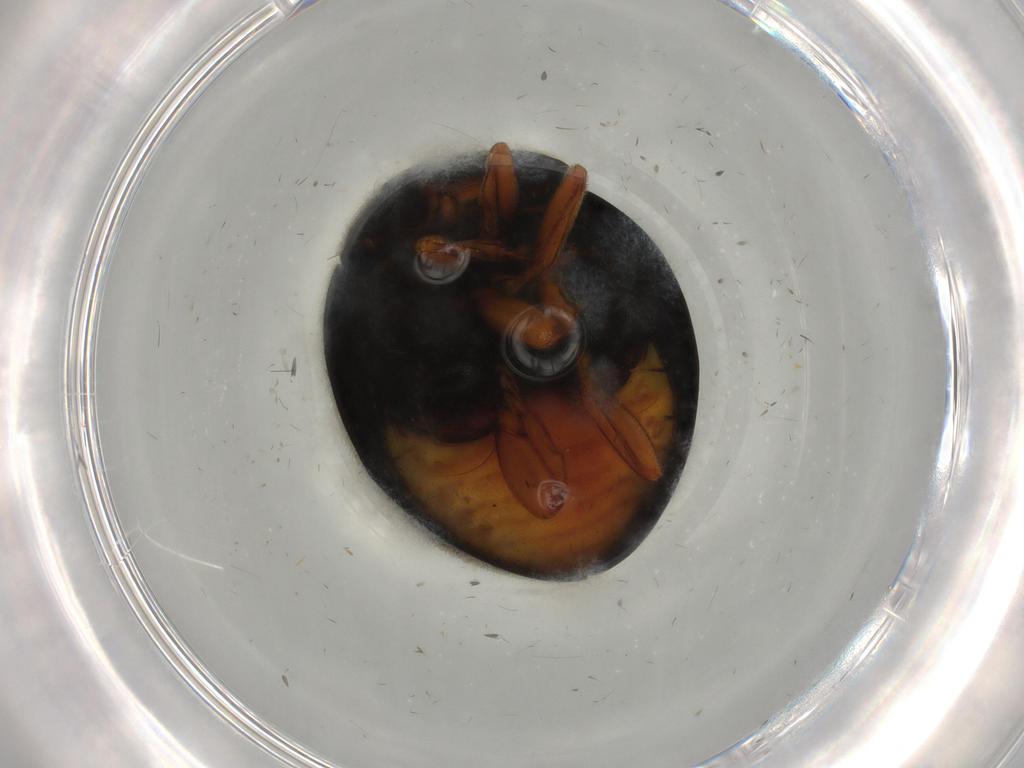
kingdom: Animalia
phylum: Arthropoda
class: Insecta
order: Coleoptera
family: Coccinellidae
